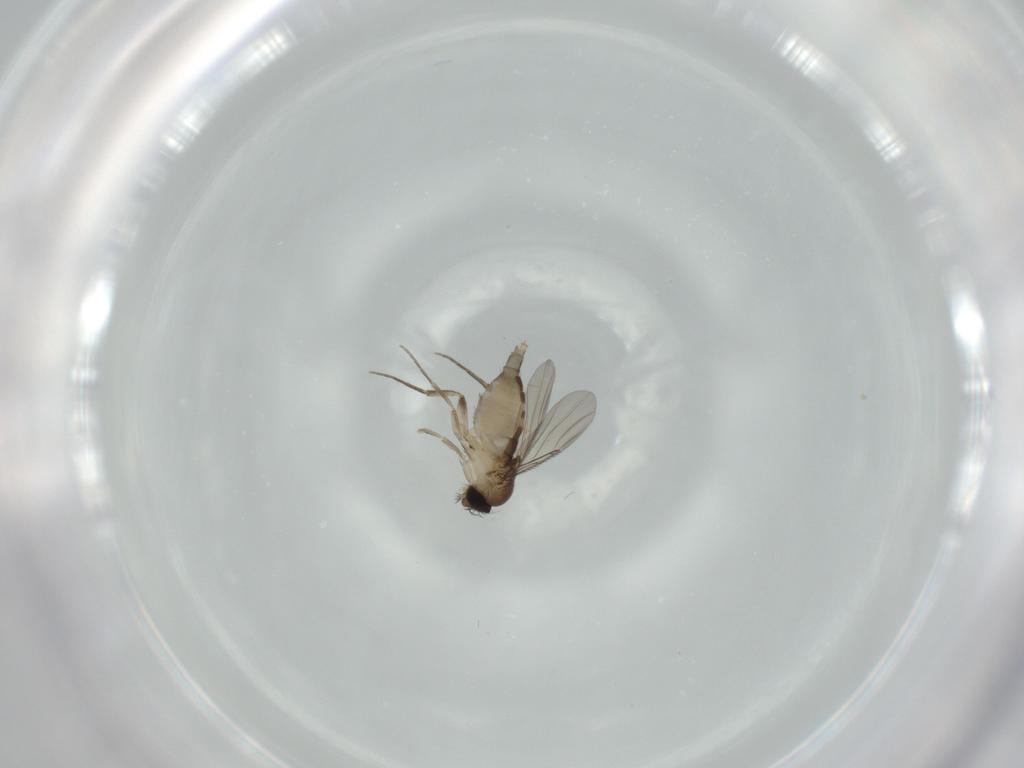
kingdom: Animalia
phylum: Arthropoda
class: Insecta
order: Diptera
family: Phoridae
